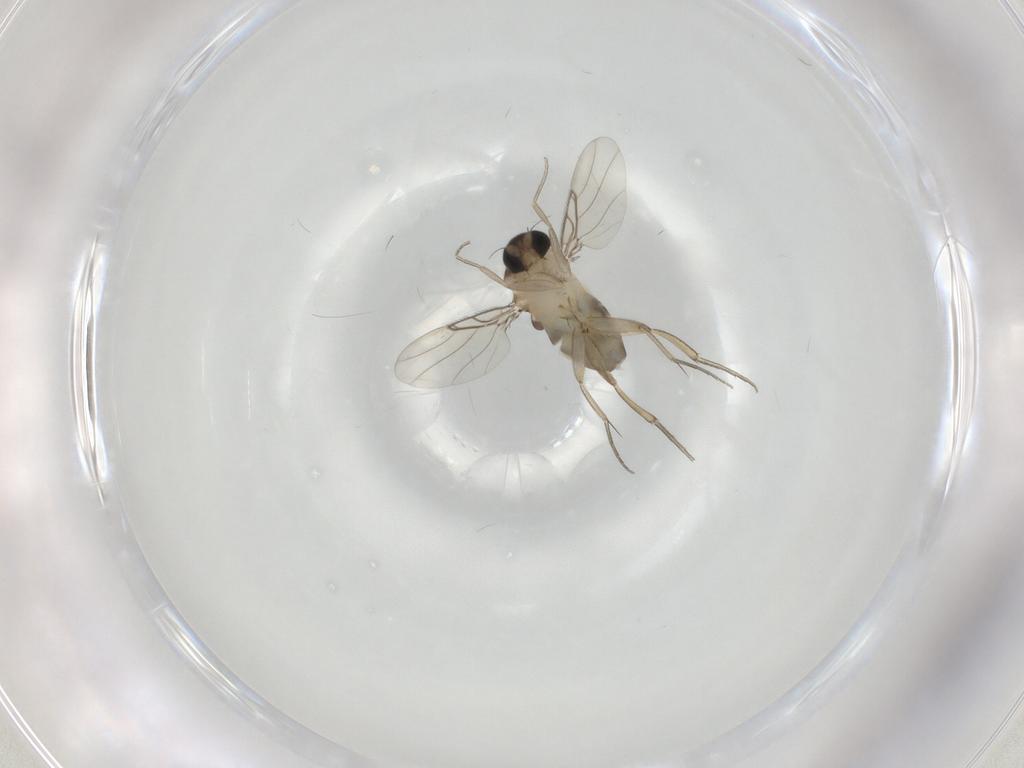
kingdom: Animalia
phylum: Arthropoda
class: Insecta
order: Diptera
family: Phoridae
